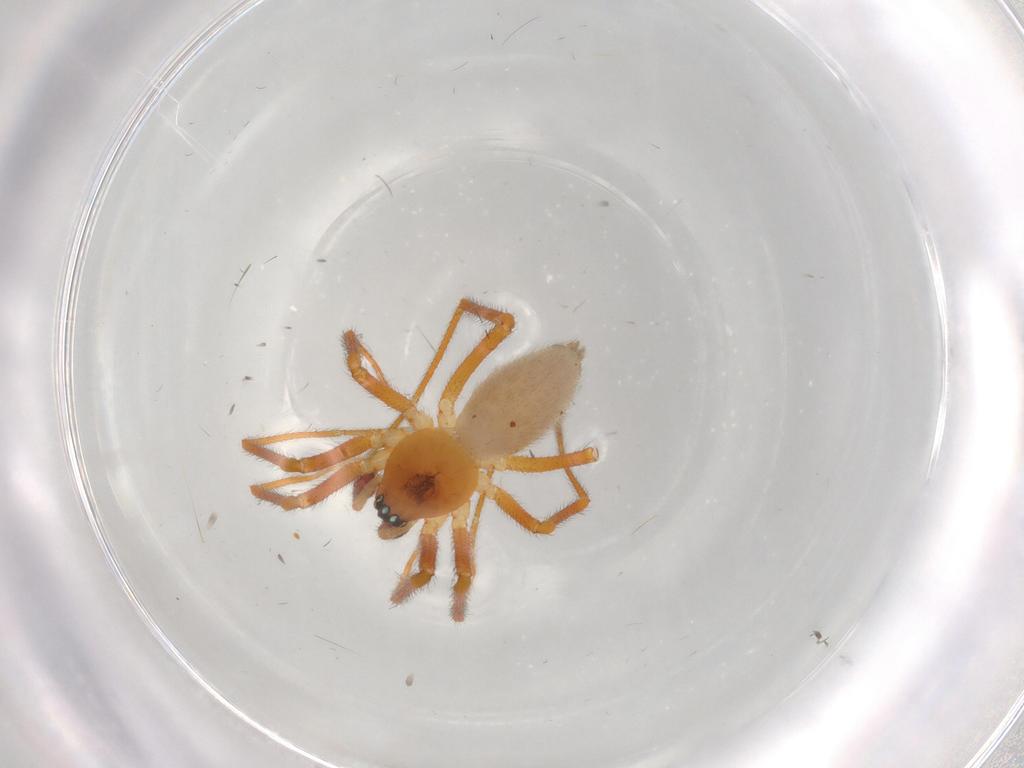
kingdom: Animalia
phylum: Arthropoda
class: Arachnida
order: Araneae
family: Linyphiidae
